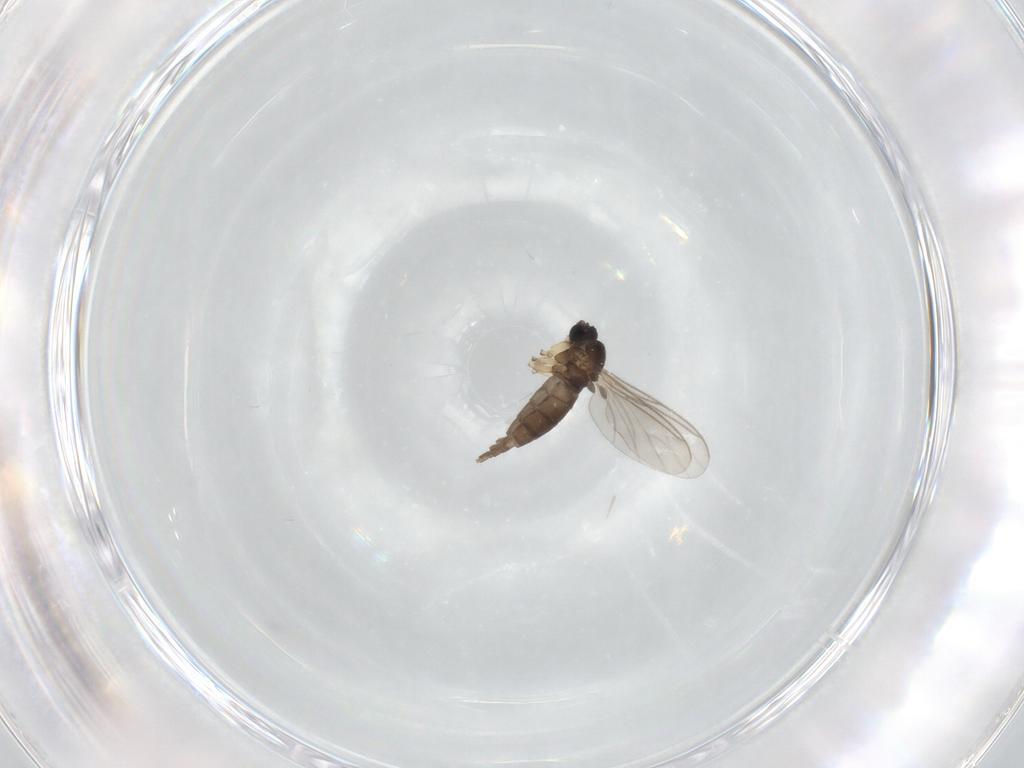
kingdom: Animalia
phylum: Arthropoda
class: Insecta
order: Diptera
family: Sciaridae
